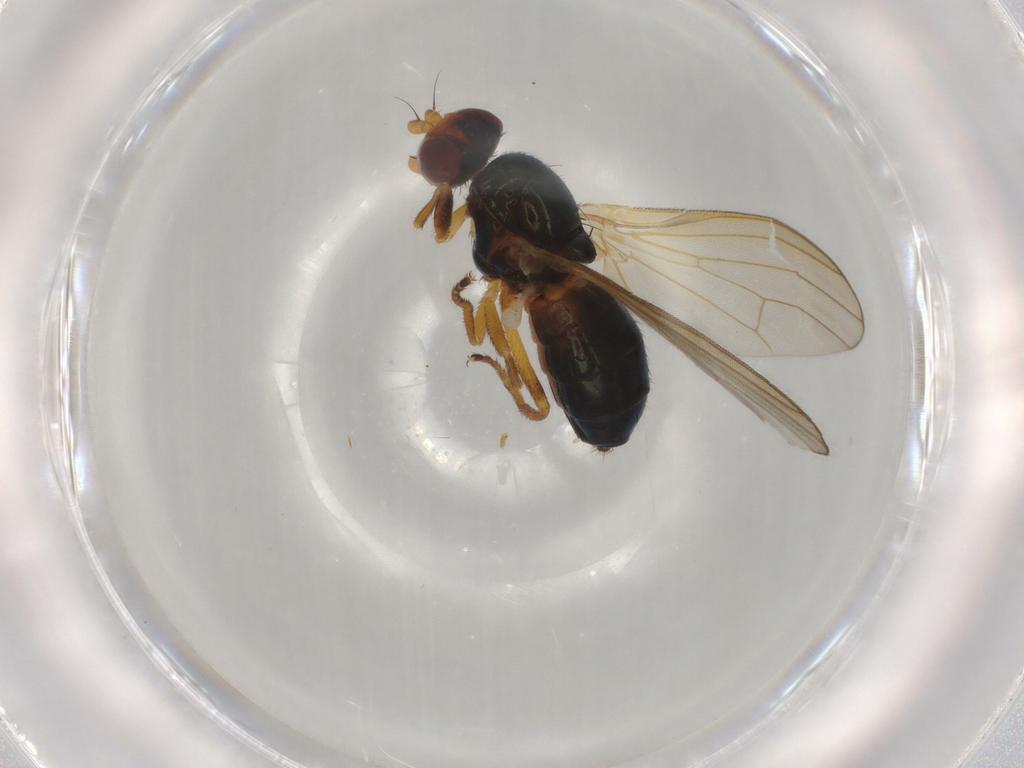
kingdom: Animalia
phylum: Arthropoda
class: Insecta
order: Diptera
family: Piophilidae
